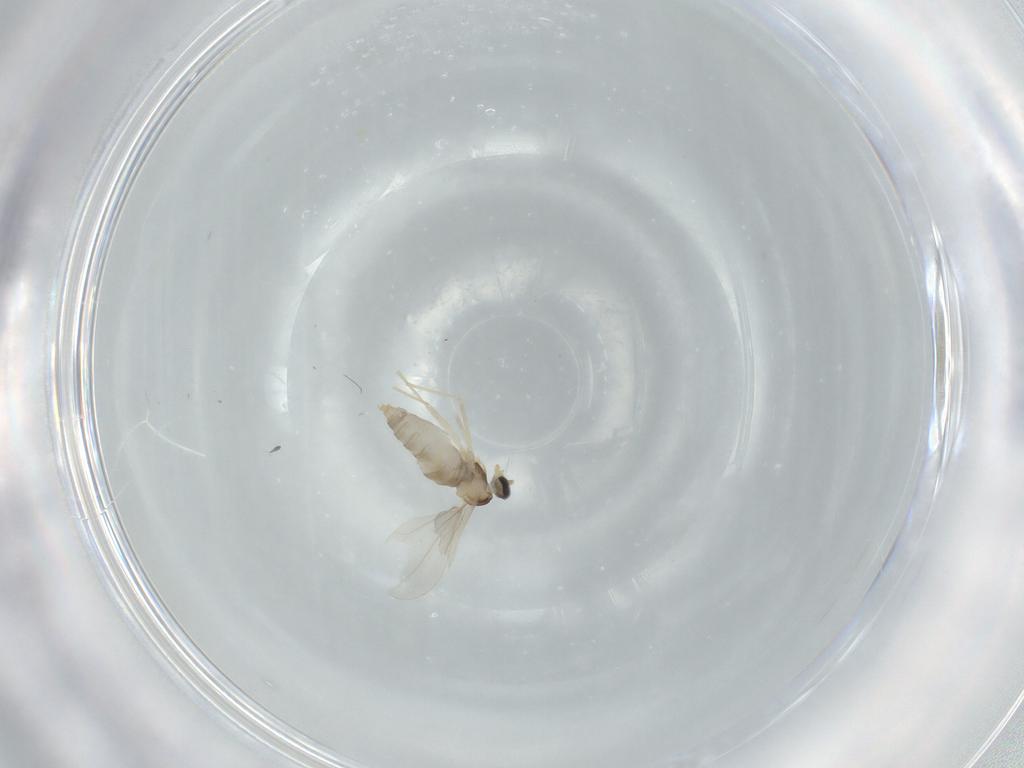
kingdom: Animalia
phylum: Arthropoda
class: Insecta
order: Diptera
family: Cecidomyiidae
